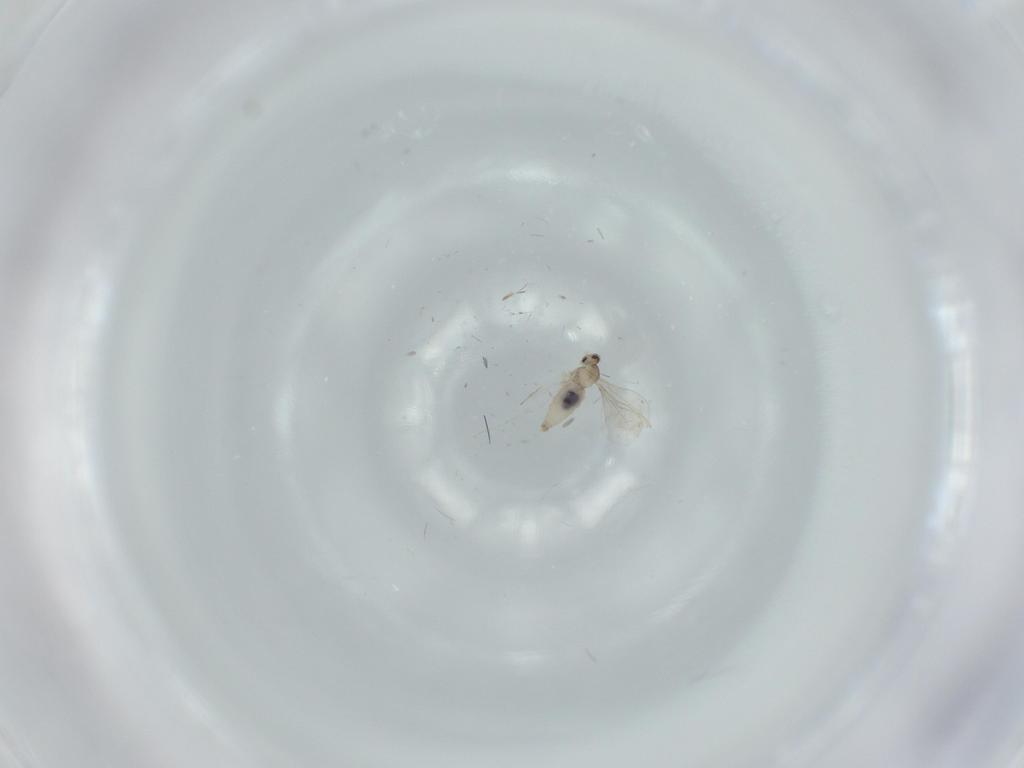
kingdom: Animalia
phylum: Arthropoda
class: Insecta
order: Diptera
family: Cecidomyiidae
